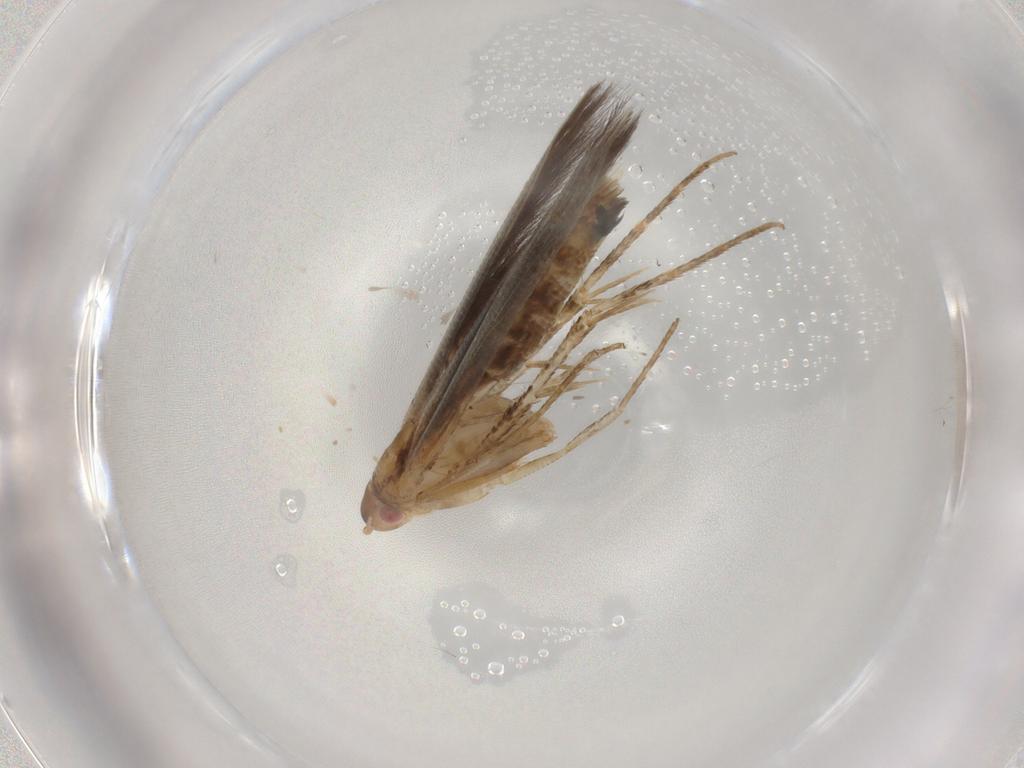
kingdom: Animalia
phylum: Arthropoda
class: Insecta
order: Lepidoptera
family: Cosmopterigidae
